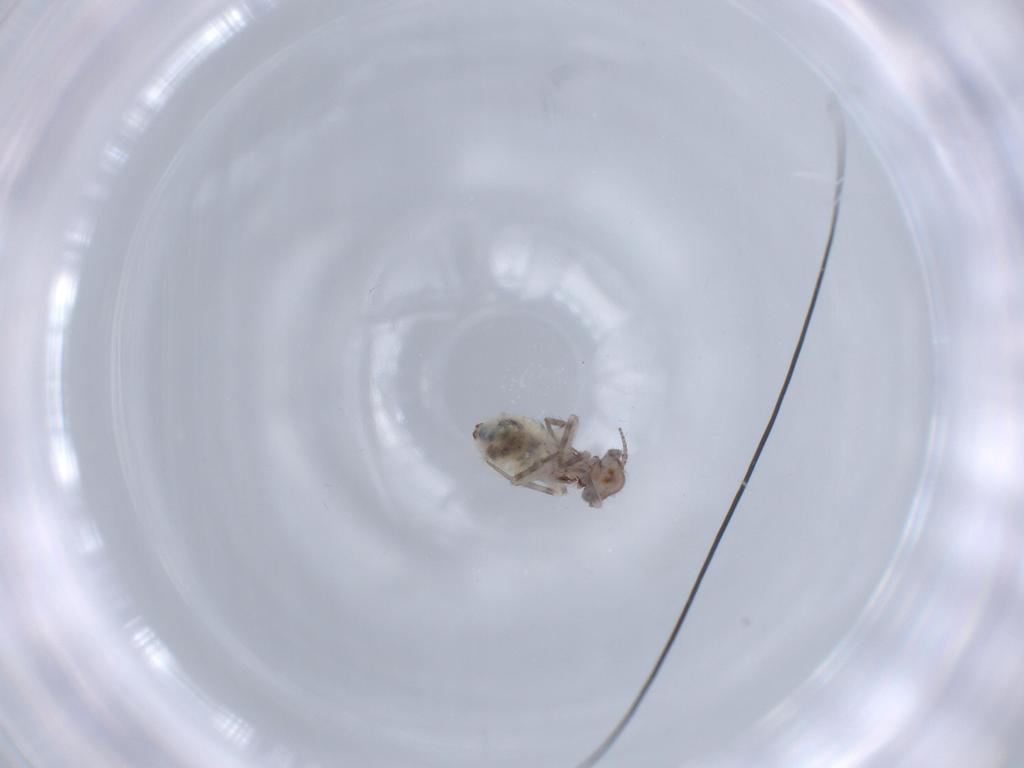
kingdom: Animalia
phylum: Arthropoda
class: Insecta
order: Psocodea
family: Lepidopsocidae
